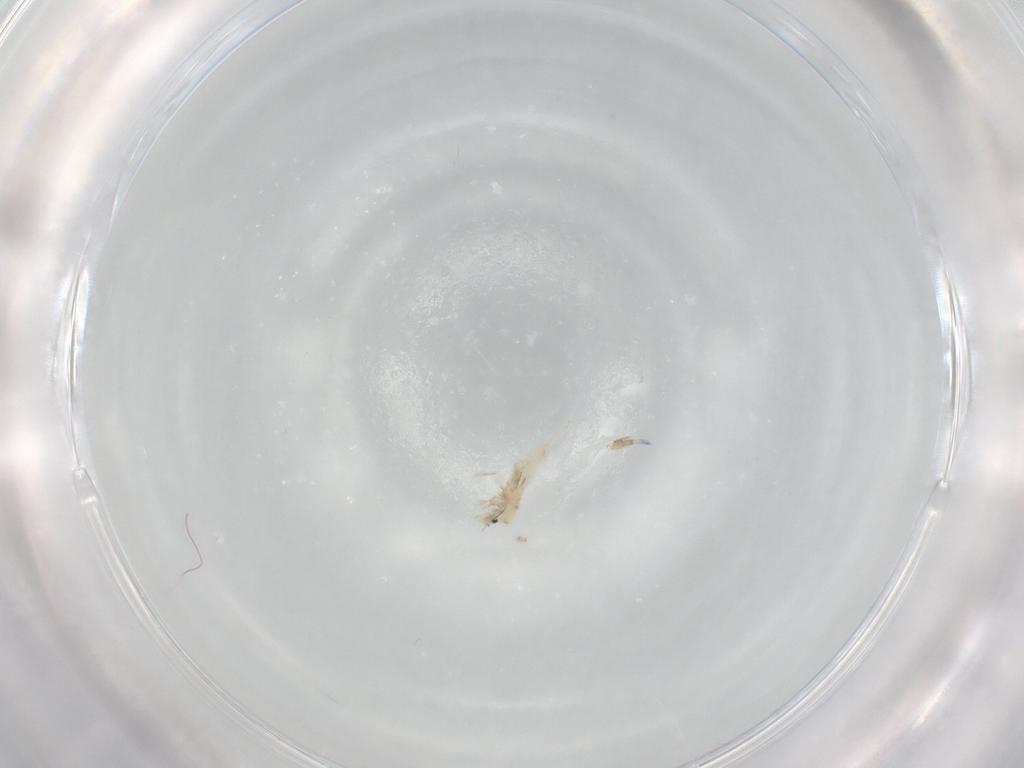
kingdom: Animalia
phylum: Arthropoda
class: Collembola
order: Entomobryomorpha
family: Entomobryidae
